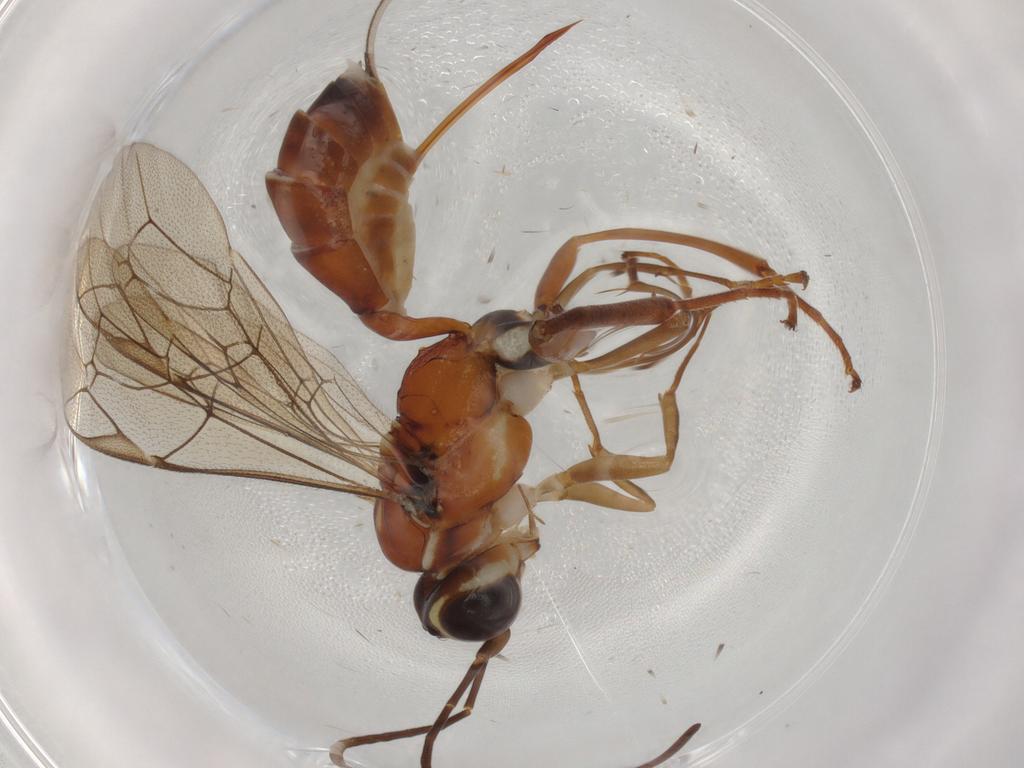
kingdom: Animalia
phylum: Arthropoda
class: Insecta
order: Hymenoptera
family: Formicidae
